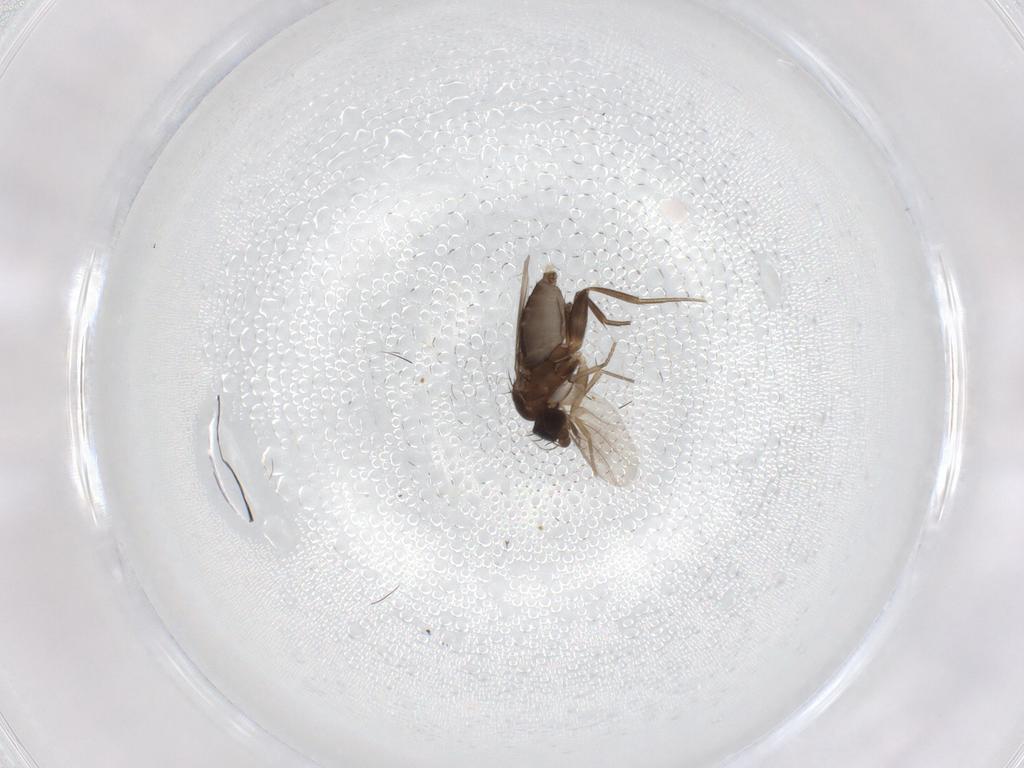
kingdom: Animalia
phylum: Arthropoda
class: Insecta
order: Diptera
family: Phoridae
